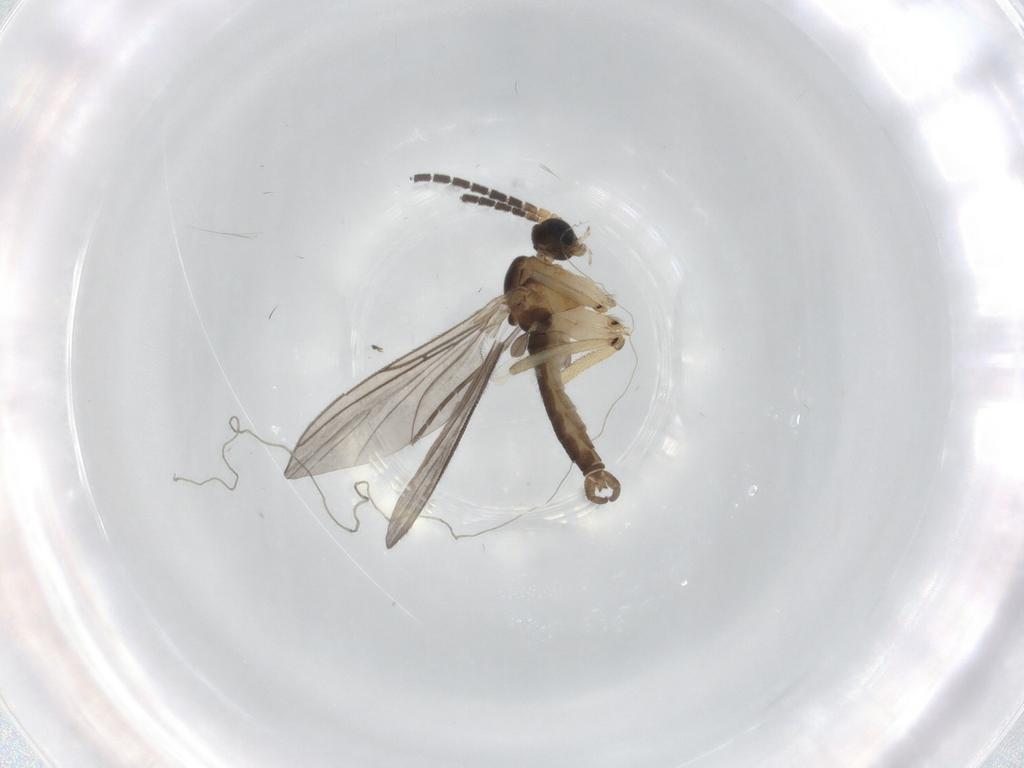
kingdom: Animalia
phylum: Arthropoda
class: Insecta
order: Diptera
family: Sciaridae
